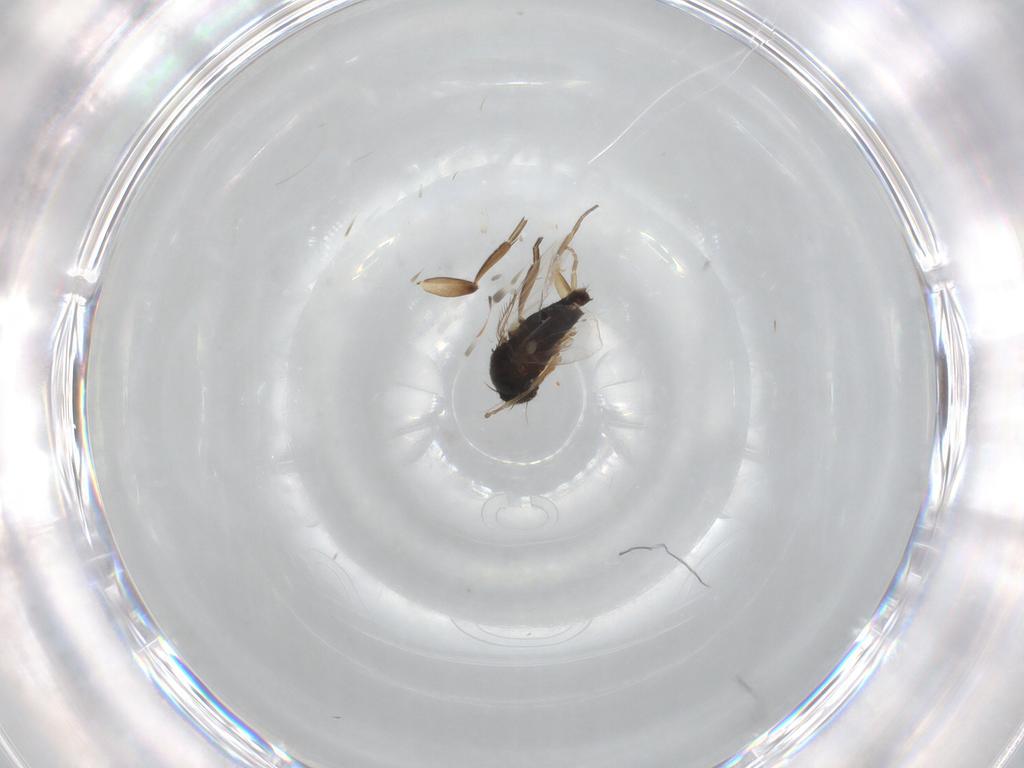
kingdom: Animalia
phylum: Arthropoda
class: Insecta
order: Diptera
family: Phoridae
